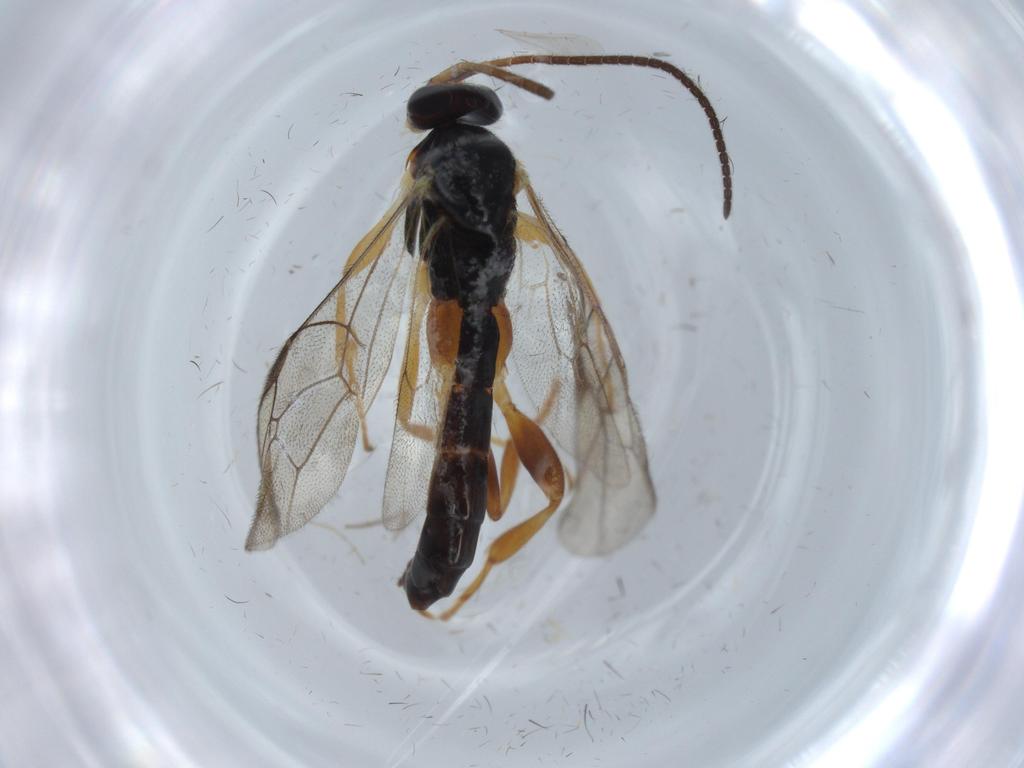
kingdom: Animalia
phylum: Arthropoda
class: Insecta
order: Hymenoptera
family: Ichneumonidae
